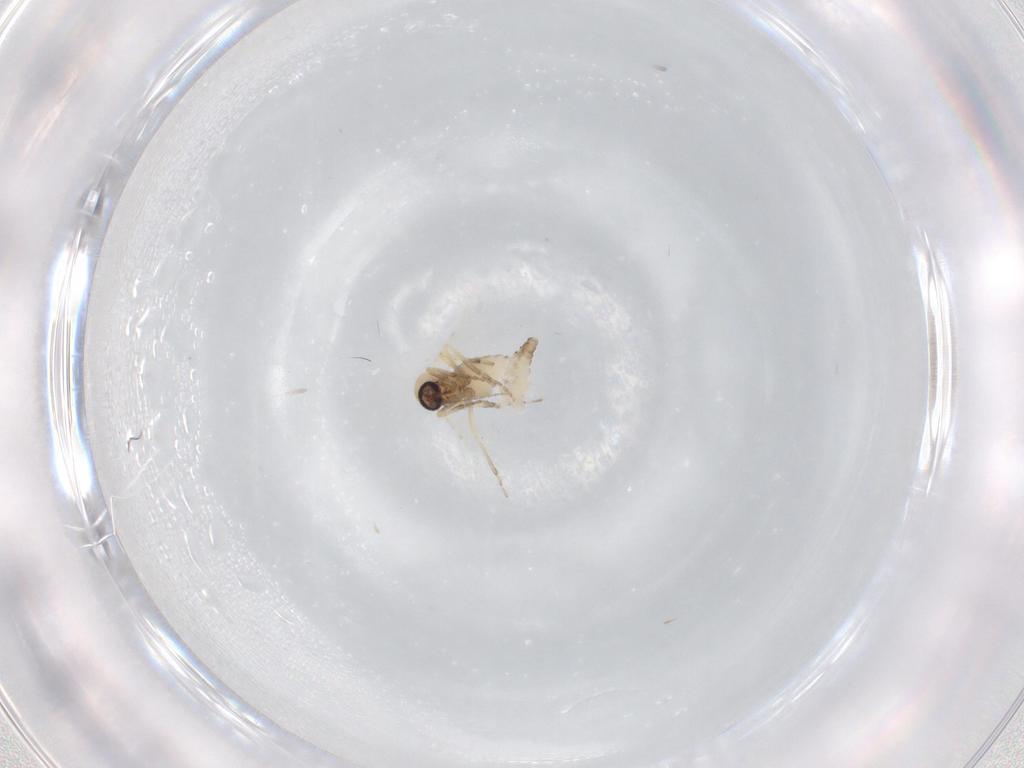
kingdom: Animalia
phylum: Arthropoda
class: Insecta
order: Diptera
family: Ceratopogonidae
